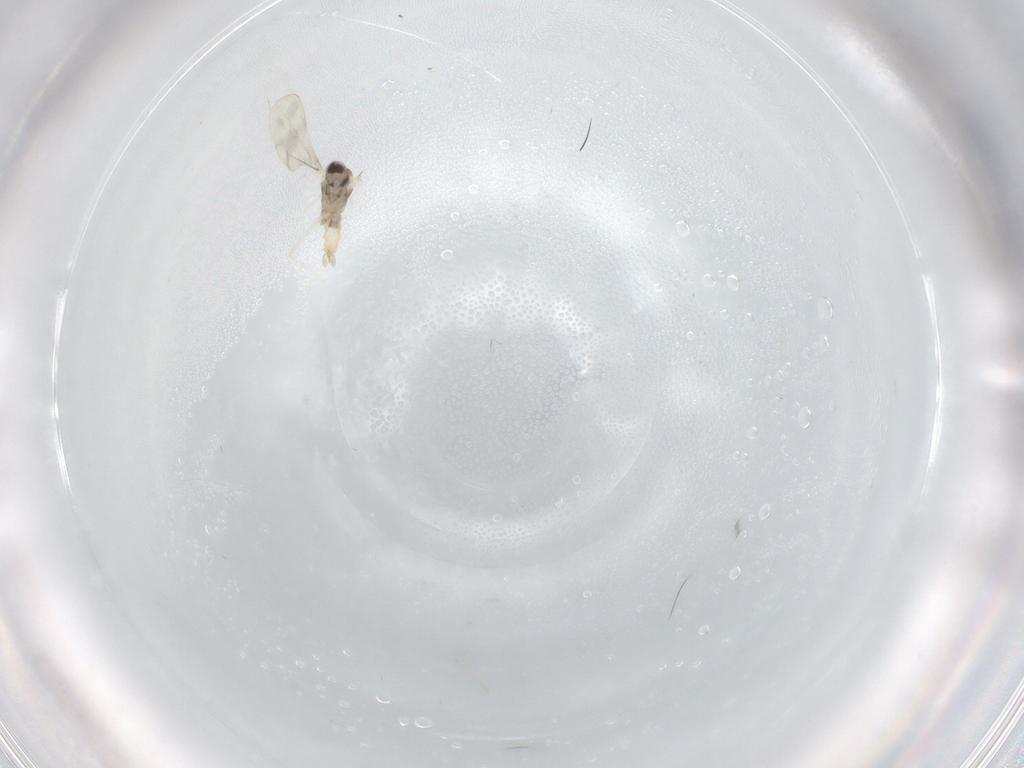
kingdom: Animalia
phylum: Arthropoda
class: Insecta
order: Diptera
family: Cecidomyiidae
